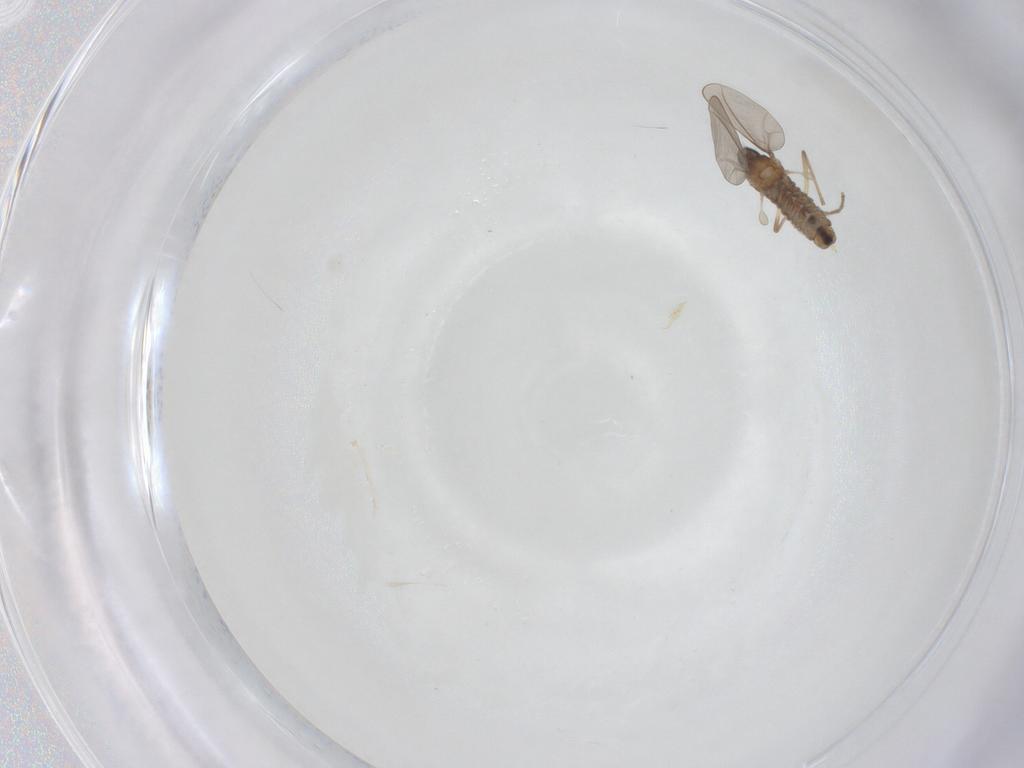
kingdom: Animalia
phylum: Arthropoda
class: Insecta
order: Diptera
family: Cecidomyiidae
